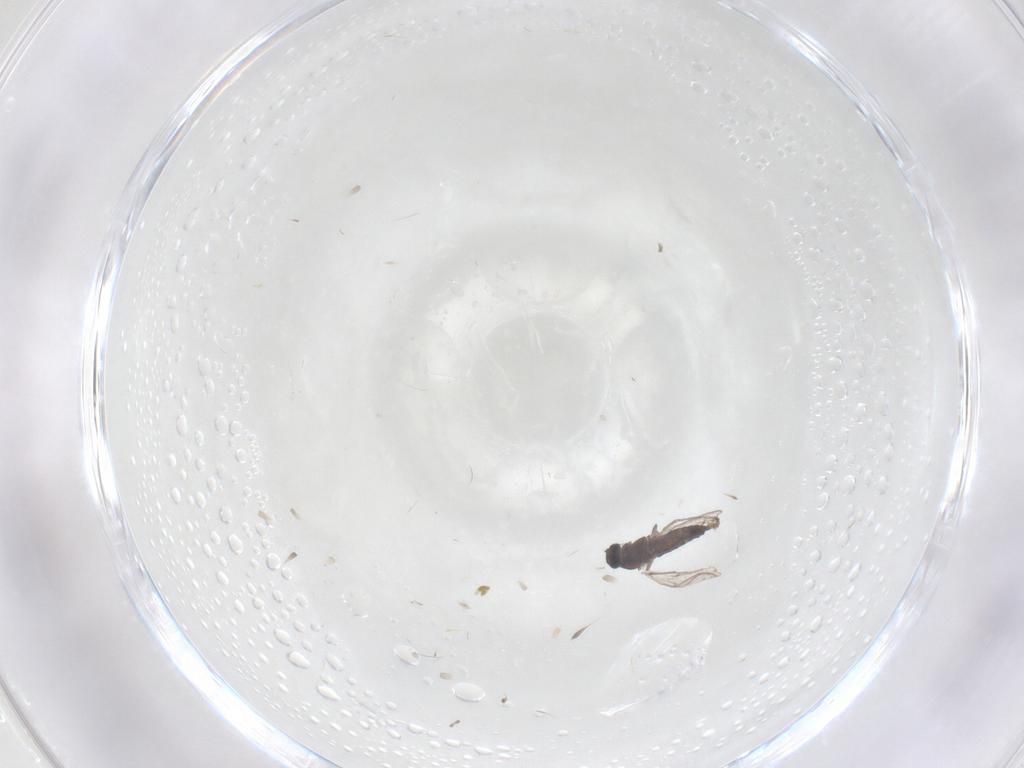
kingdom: Animalia
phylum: Arthropoda
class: Insecta
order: Diptera
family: Chironomidae
